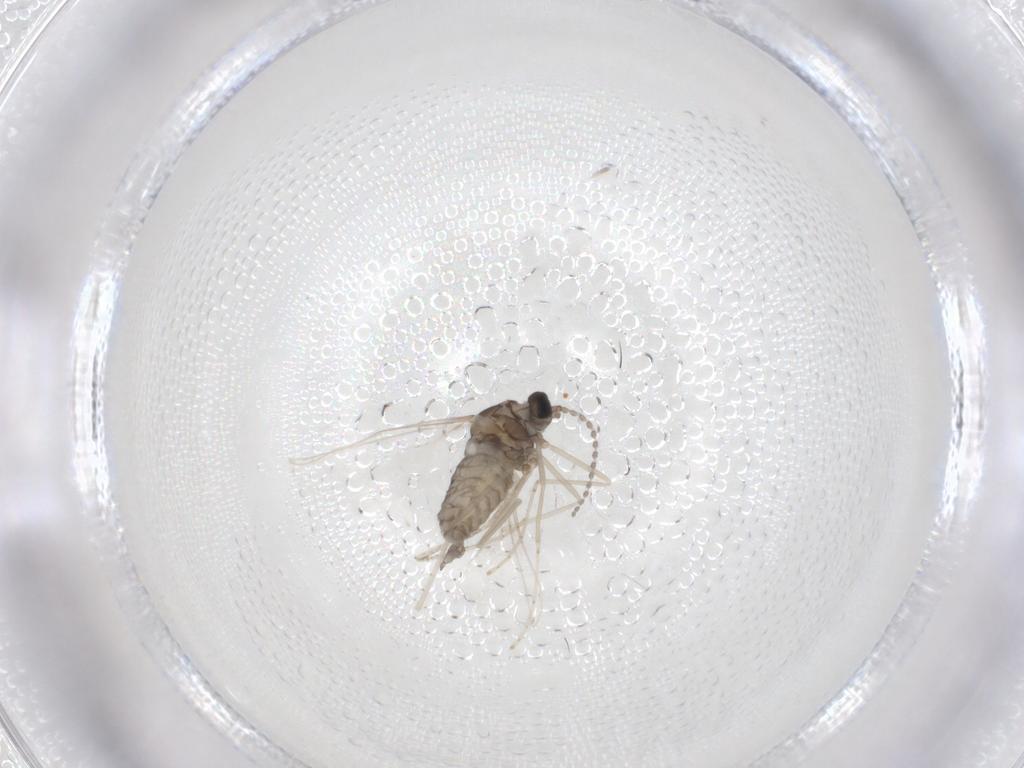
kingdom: Animalia
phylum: Arthropoda
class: Insecta
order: Diptera
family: Cecidomyiidae
